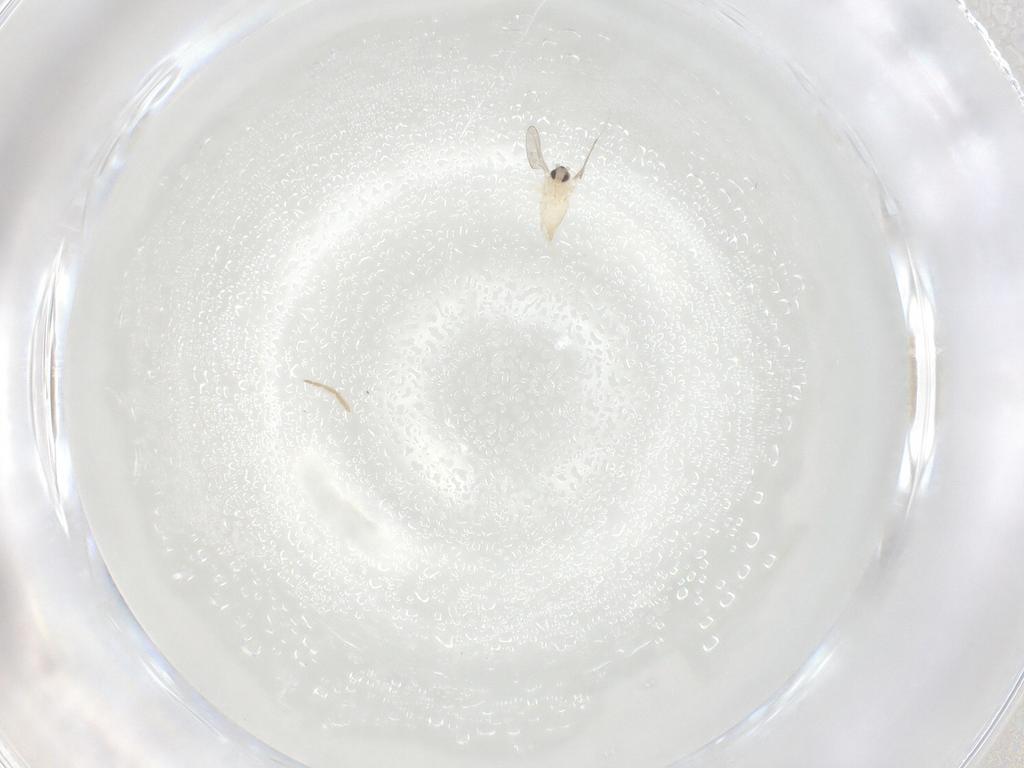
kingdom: Animalia
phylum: Arthropoda
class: Insecta
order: Diptera
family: Cecidomyiidae
